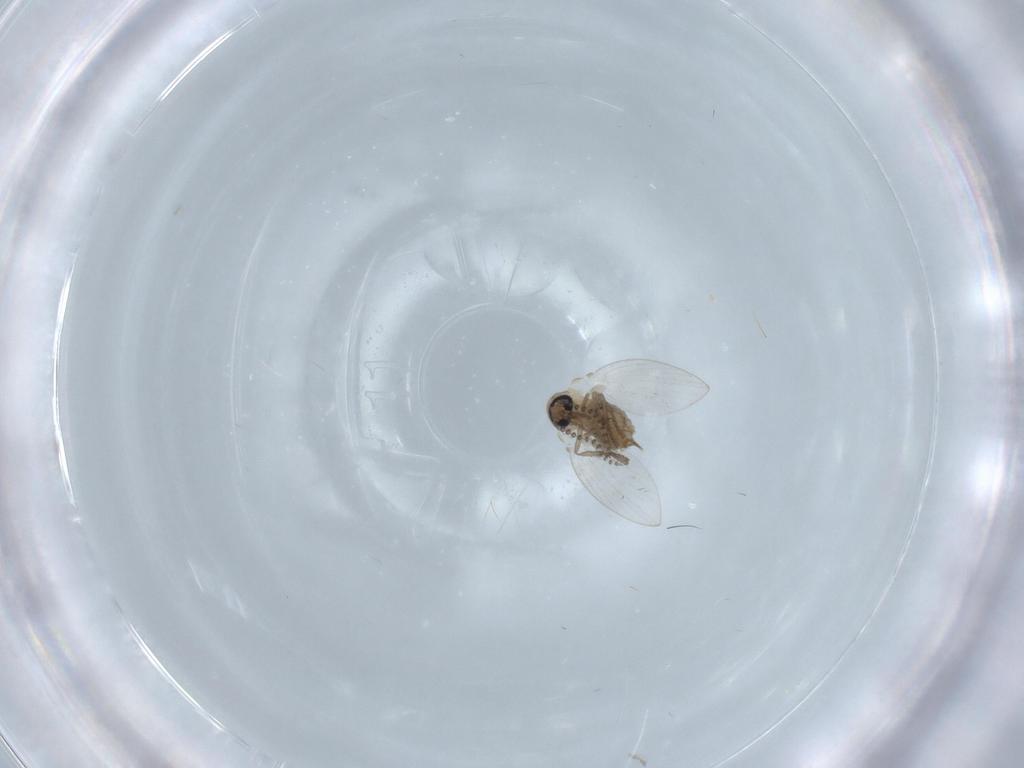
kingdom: Animalia
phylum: Arthropoda
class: Insecta
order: Diptera
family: Psychodidae
